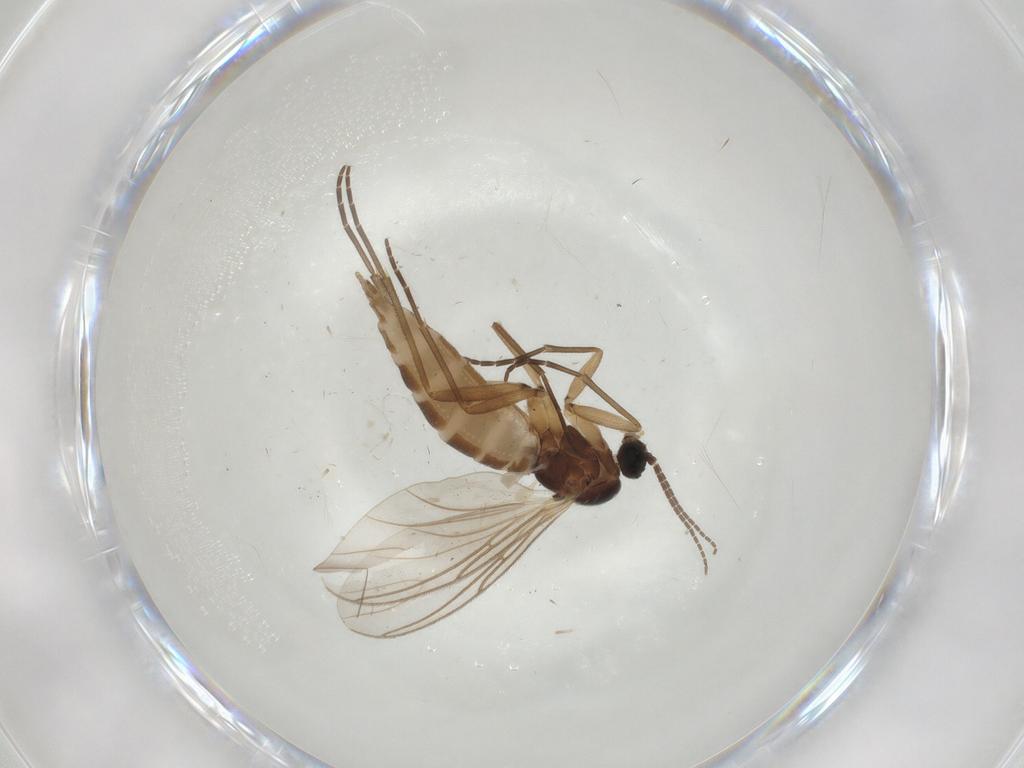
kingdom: Animalia
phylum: Arthropoda
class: Insecta
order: Diptera
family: Sciaridae
